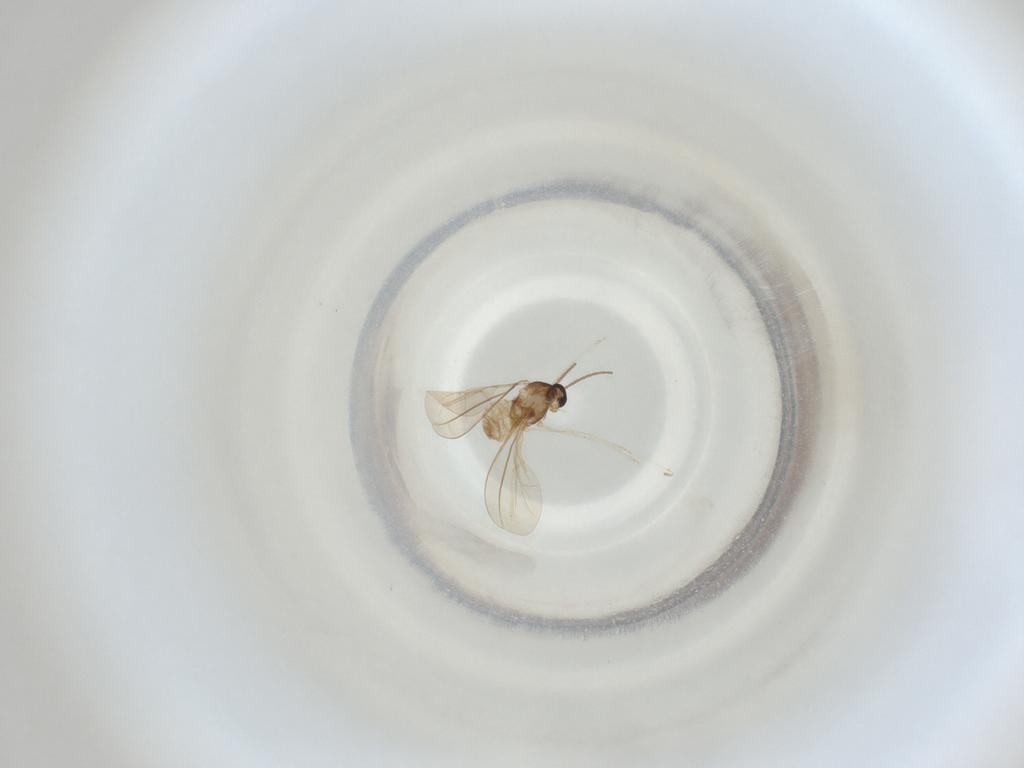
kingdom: Animalia
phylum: Arthropoda
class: Insecta
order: Diptera
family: Cecidomyiidae
